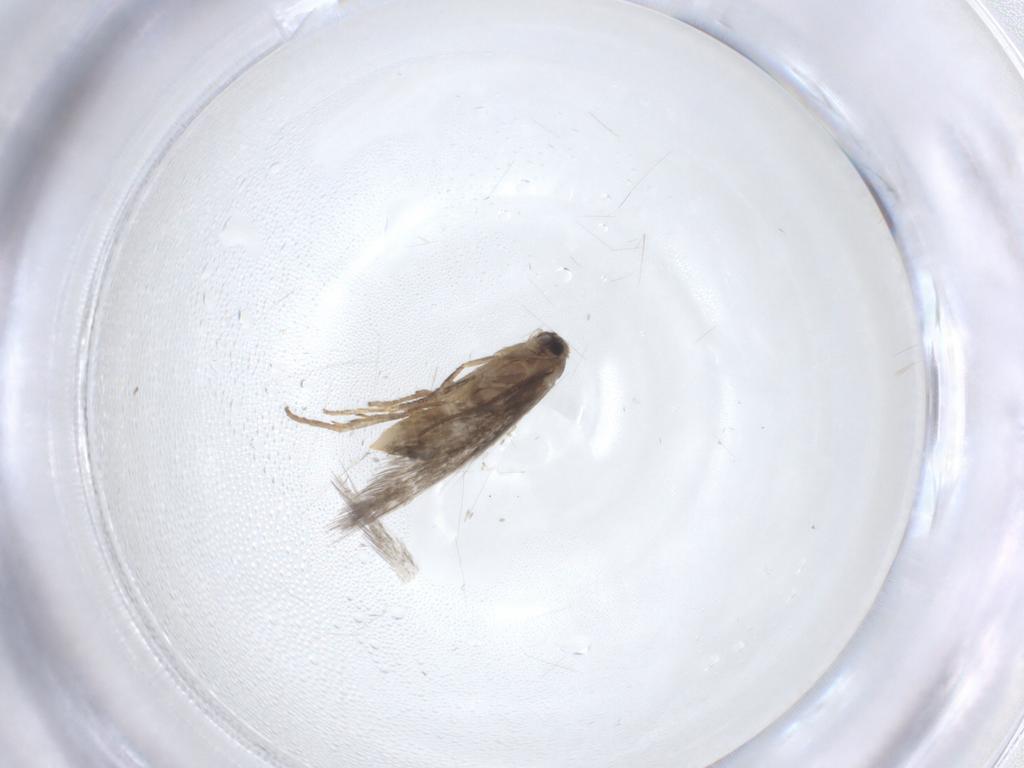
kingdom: Animalia
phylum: Arthropoda
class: Insecta
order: Lepidoptera
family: Nepticulidae
